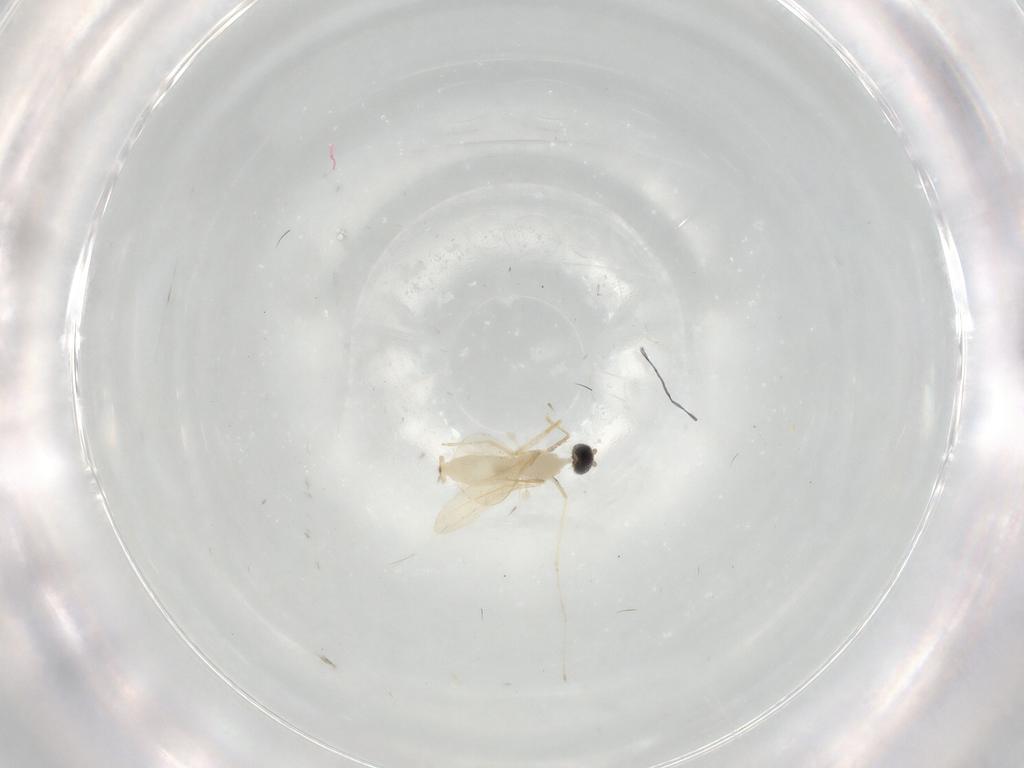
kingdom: Animalia
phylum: Arthropoda
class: Insecta
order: Diptera
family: Cecidomyiidae
